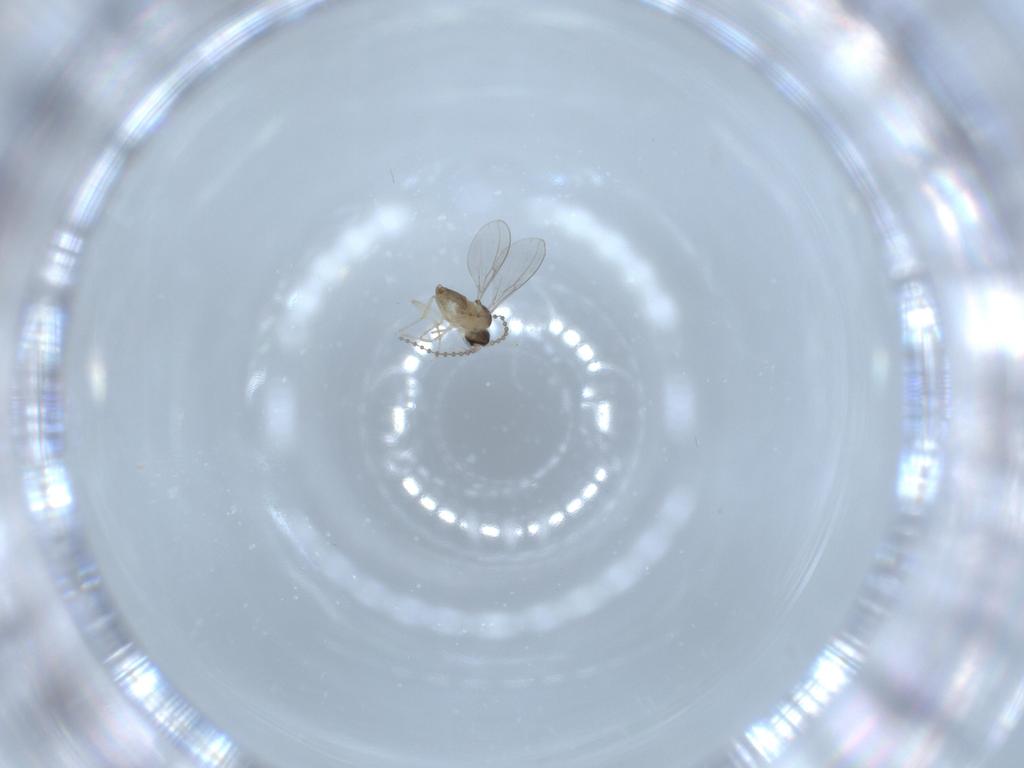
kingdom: Animalia
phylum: Arthropoda
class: Insecta
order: Diptera
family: Cecidomyiidae
